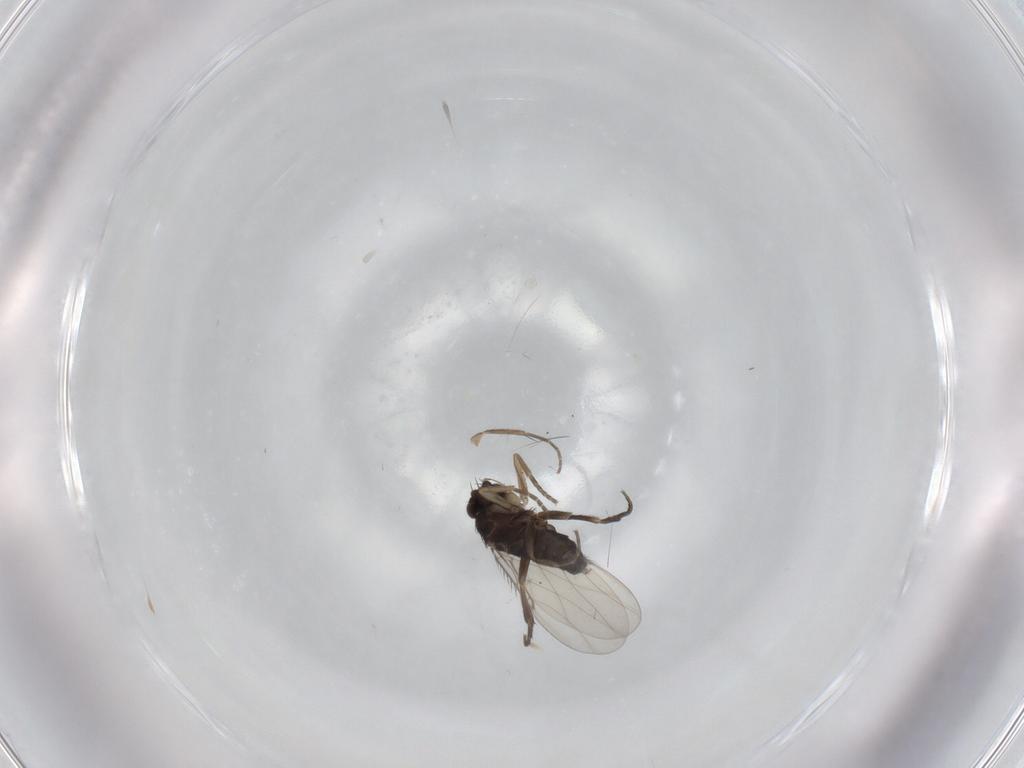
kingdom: Animalia
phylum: Arthropoda
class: Insecta
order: Diptera
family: Phoridae
